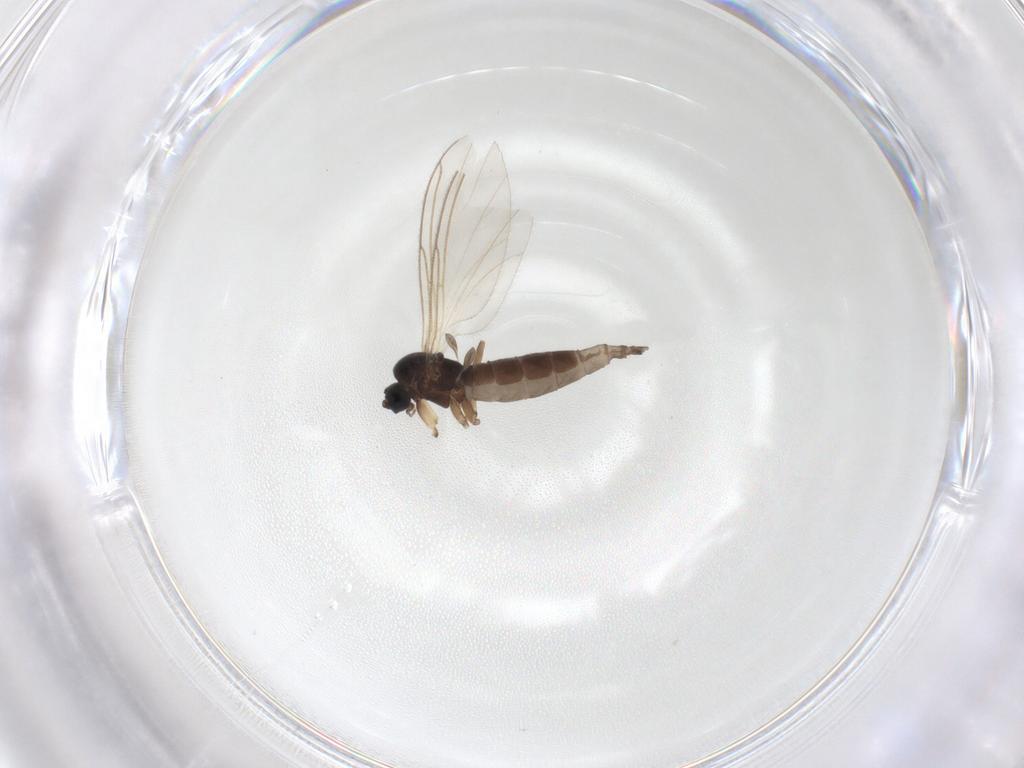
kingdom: Animalia
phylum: Arthropoda
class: Insecta
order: Diptera
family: Sciaridae
